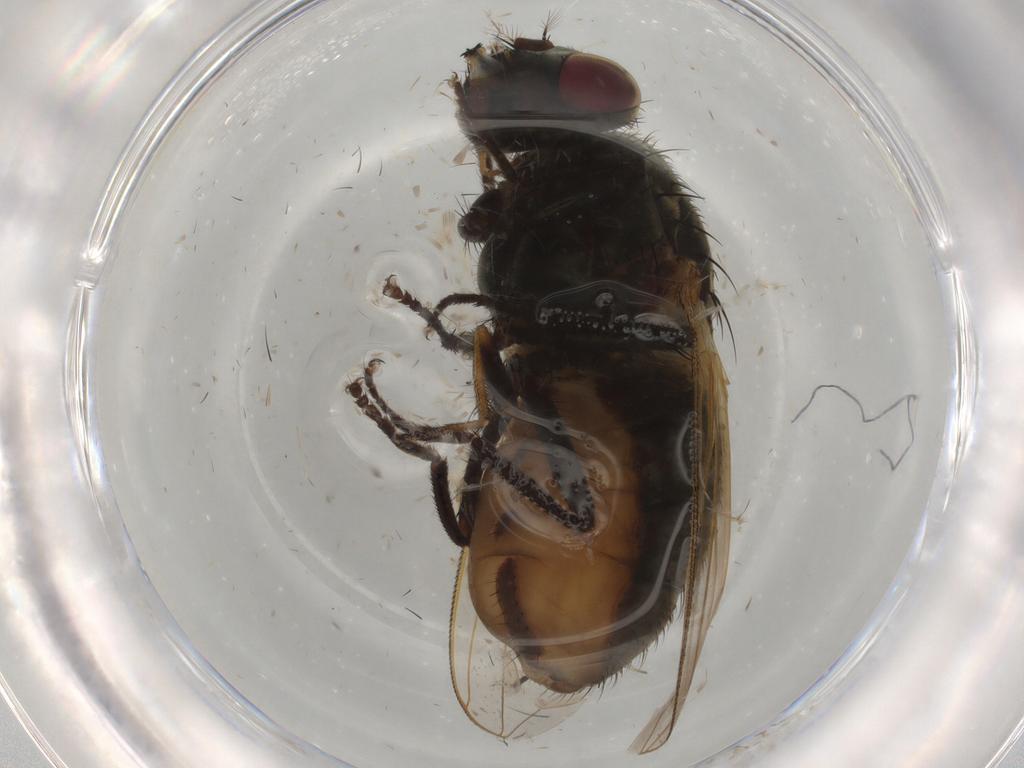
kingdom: Animalia
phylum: Arthropoda
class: Insecta
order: Diptera
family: Muscidae
